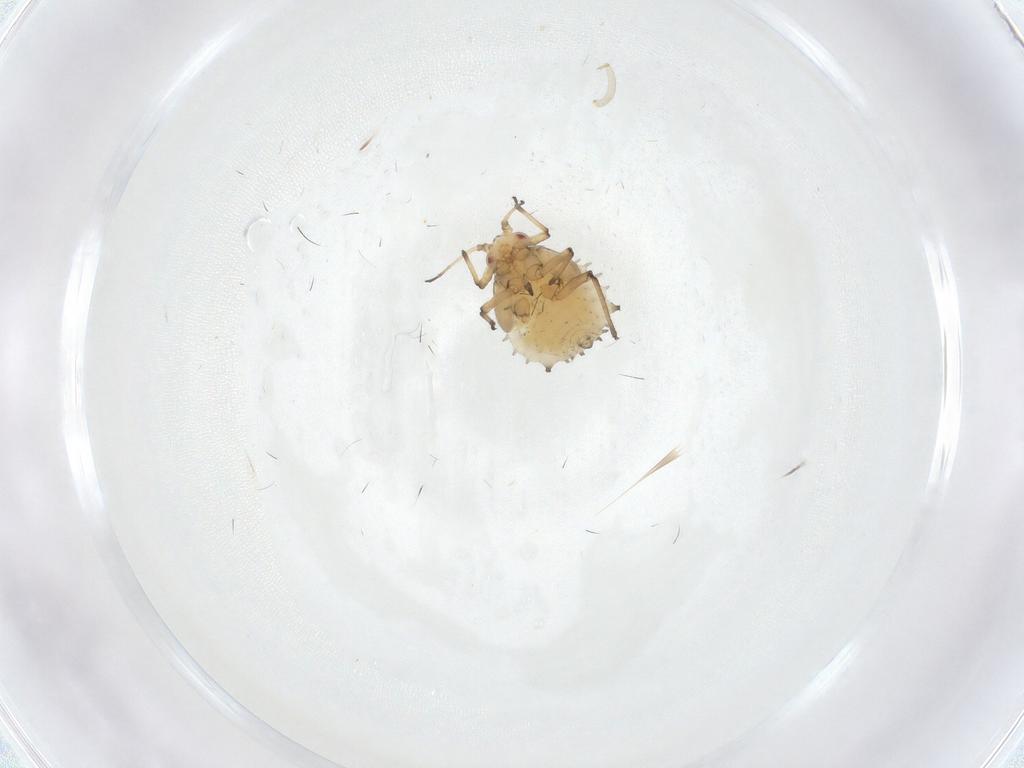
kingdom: Animalia
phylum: Arthropoda
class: Insecta
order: Hemiptera
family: Aphididae
